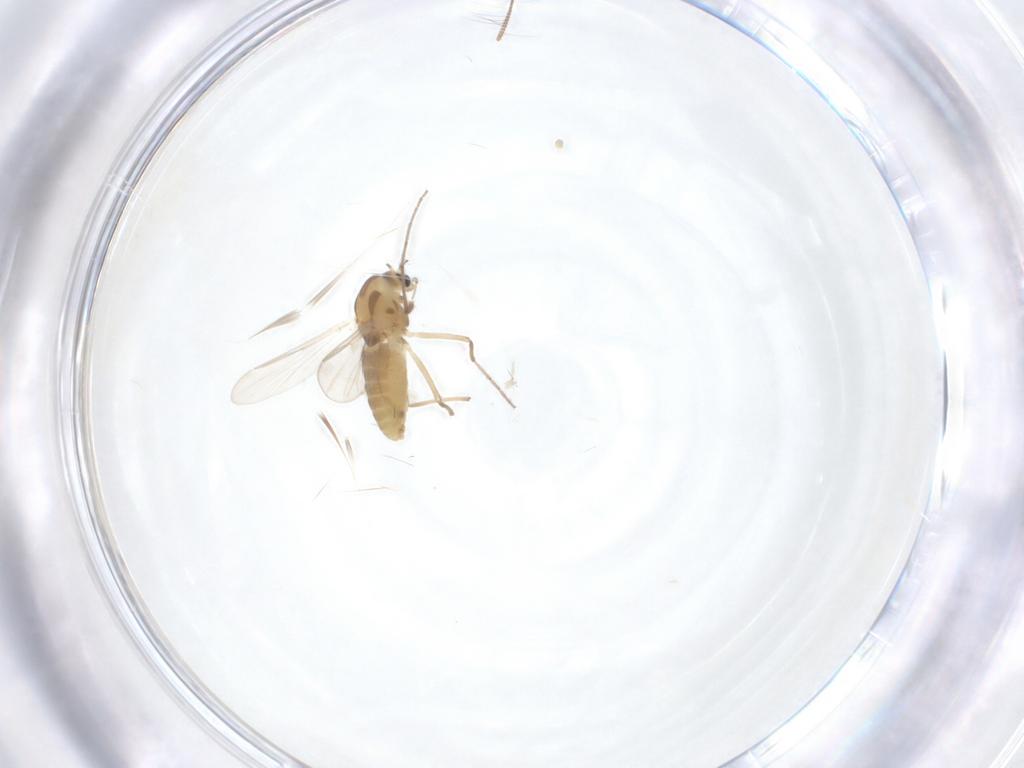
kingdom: Animalia
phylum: Arthropoda
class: Insecta
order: Diptera
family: Chironomidae
